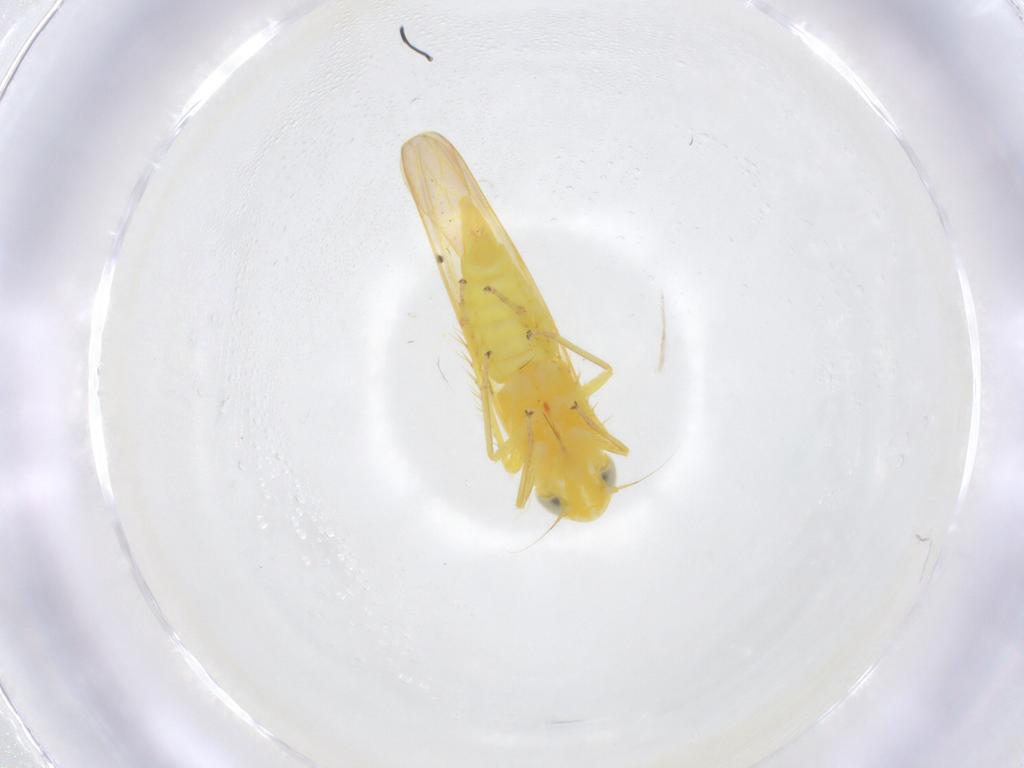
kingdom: Animalia
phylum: Arthropoda
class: Insecta
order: Hemiptera
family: Cicadellidae
